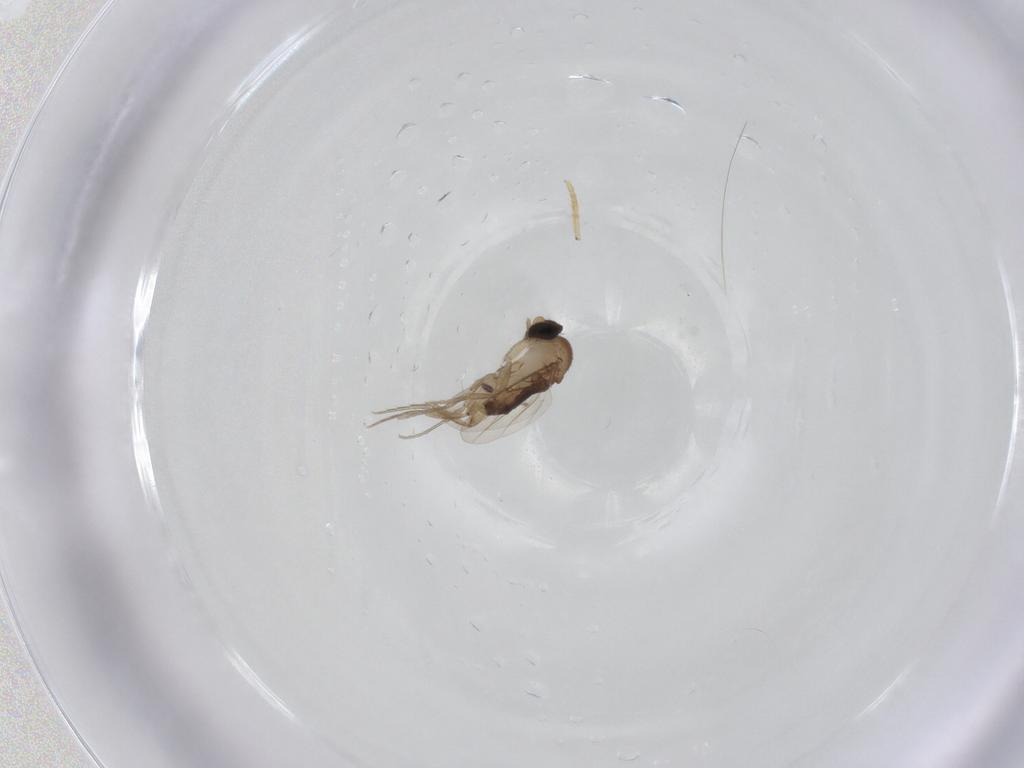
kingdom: Animalia
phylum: Arthropoda
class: Insecta
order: Diptera
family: Phoridae
